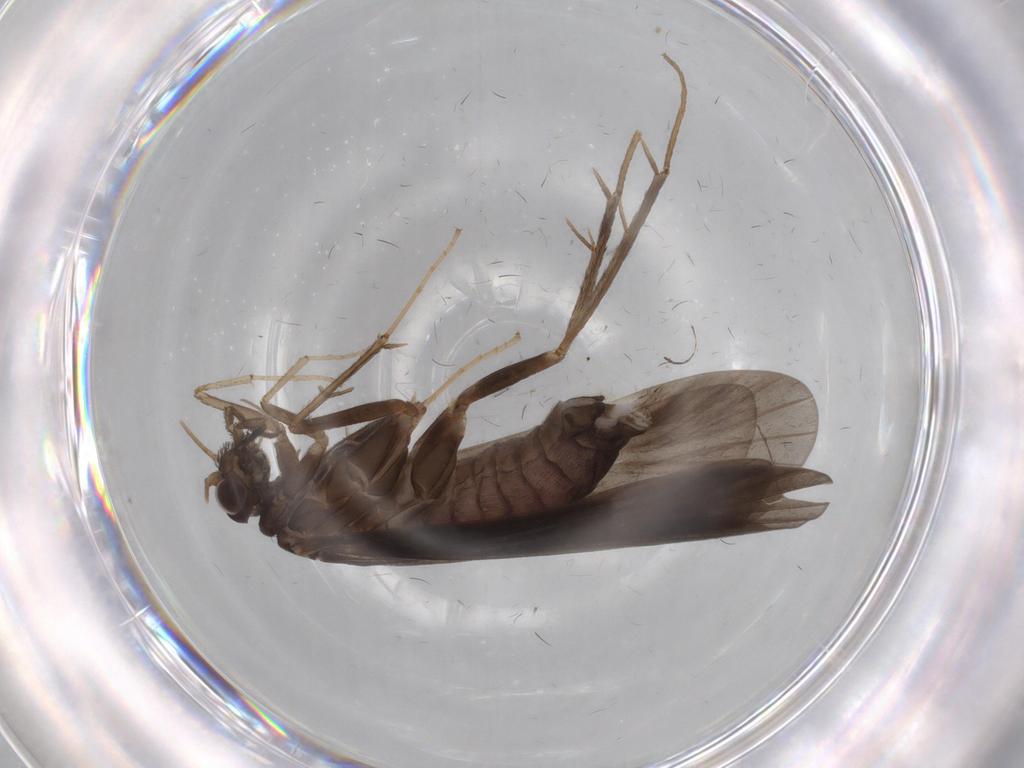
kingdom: Animalia
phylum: Arthropoda
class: Insecta
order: Trichoptera
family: Hydropsychidae
